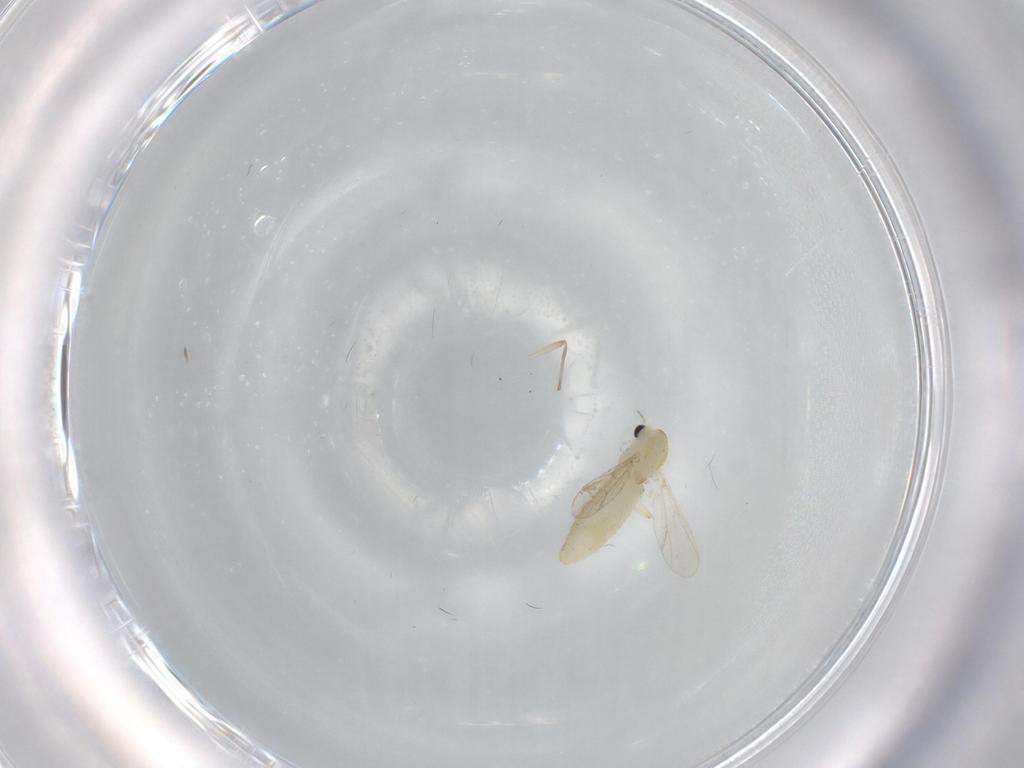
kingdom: Animalia
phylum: Arthropoda
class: Insecta
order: Diptera
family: Chironomidae
